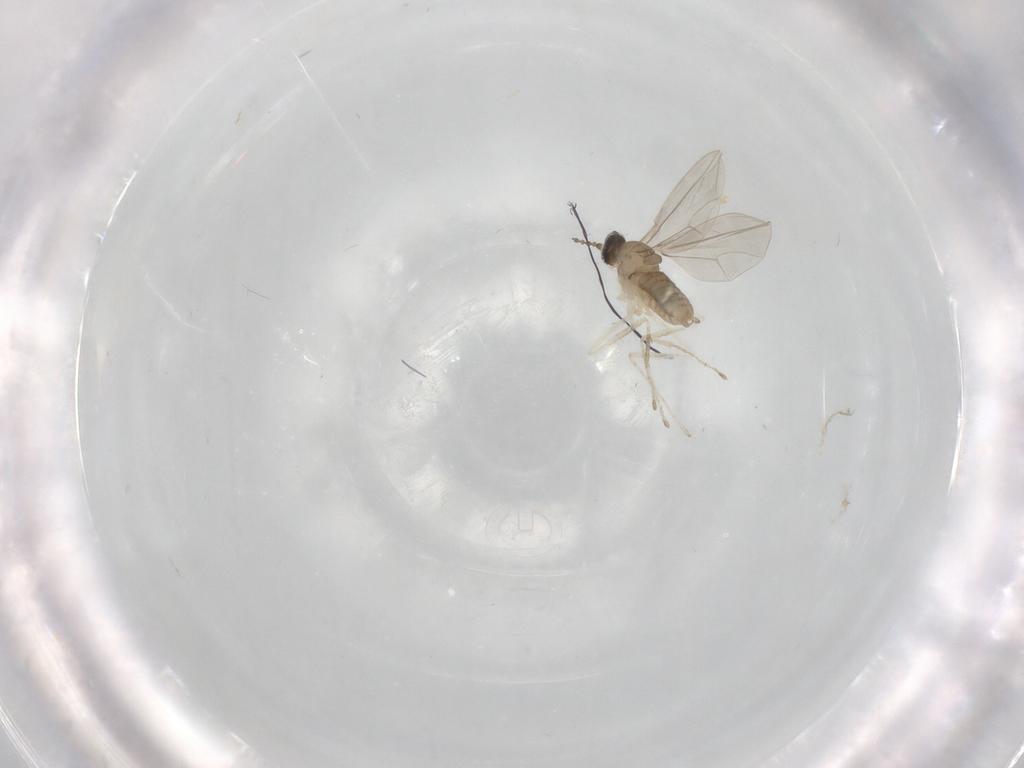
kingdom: Animalia
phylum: Arthropoda
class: Insecta
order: Diptera
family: Cecidomyiidae
